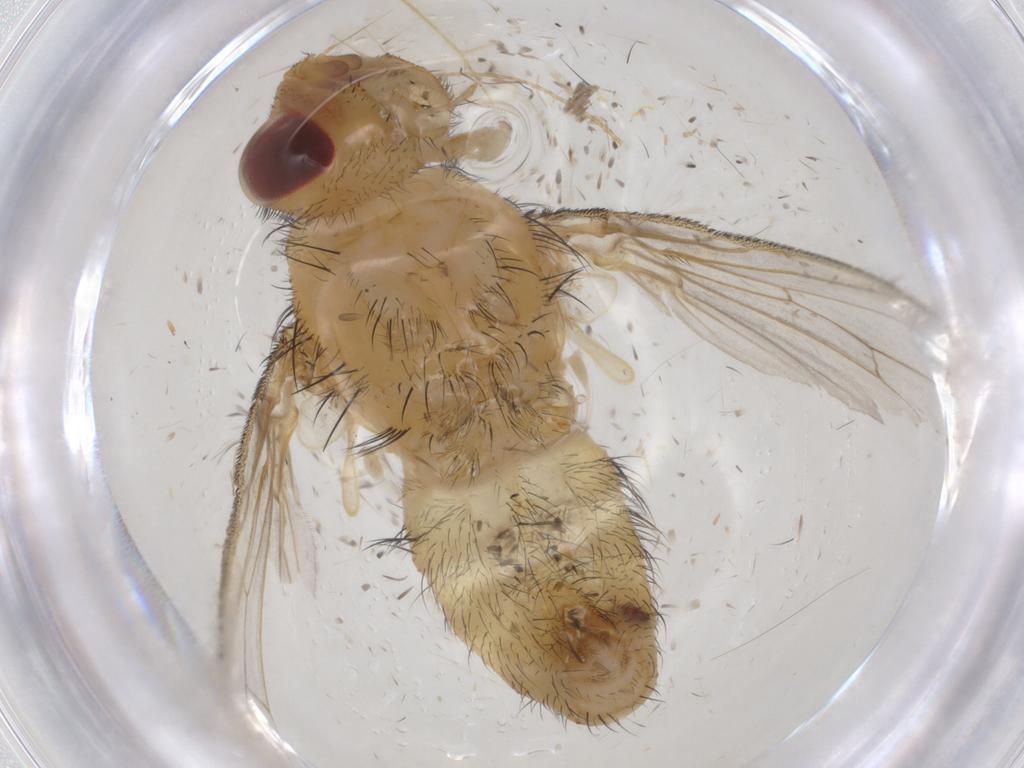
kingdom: Animalia
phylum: Arthropoda
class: Insecta
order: Diptera
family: Tachinidae
